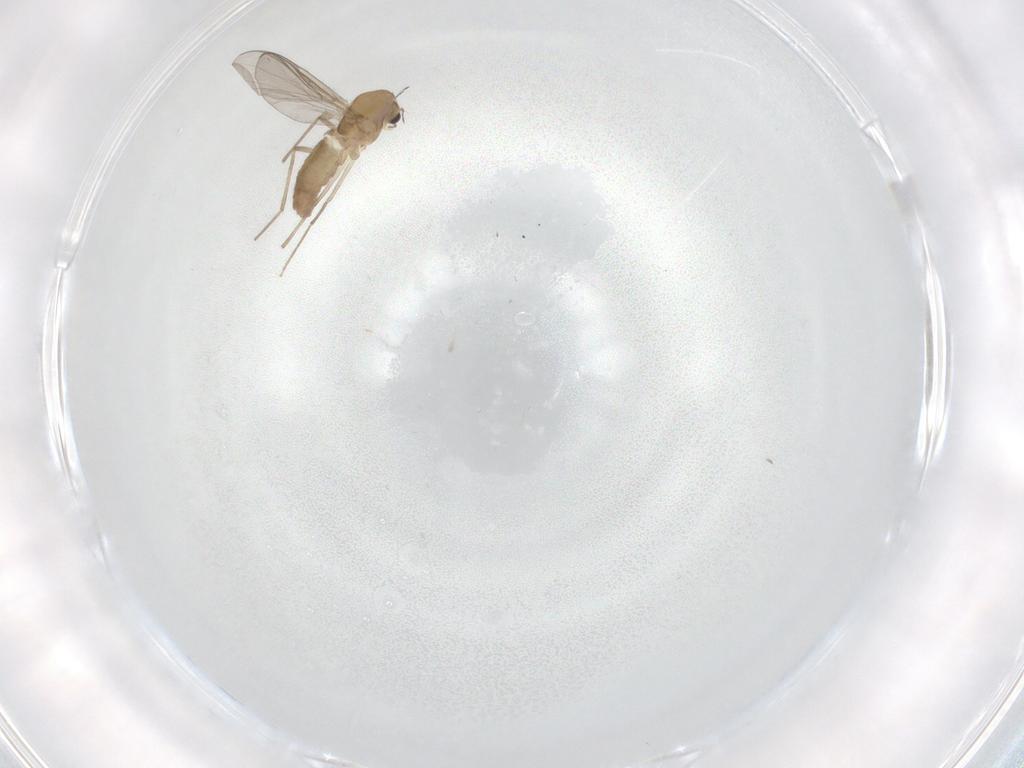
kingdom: Animalia
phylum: Arthropoda
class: Insecta
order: Diptera
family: Chironomidae
